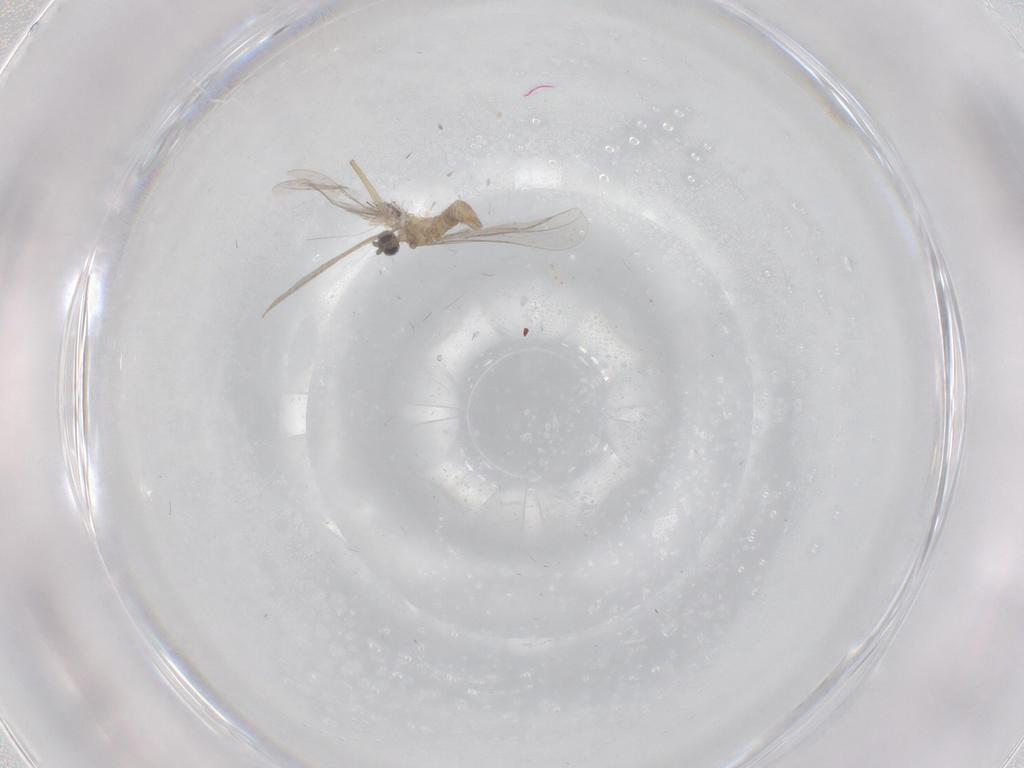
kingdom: Animalia
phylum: Arthropoda
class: Insecta
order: Diptera
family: Cecidomyiidae
